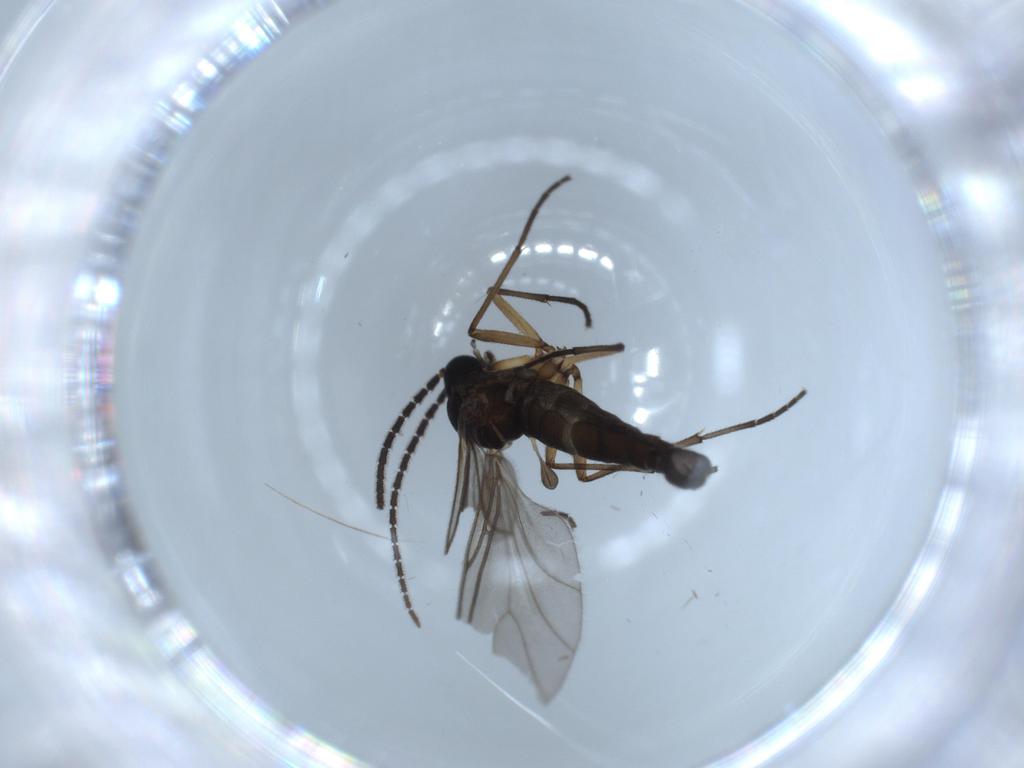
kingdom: Animalia
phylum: Arthropoda
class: Insecta
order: Diptera
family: Sciaridae
